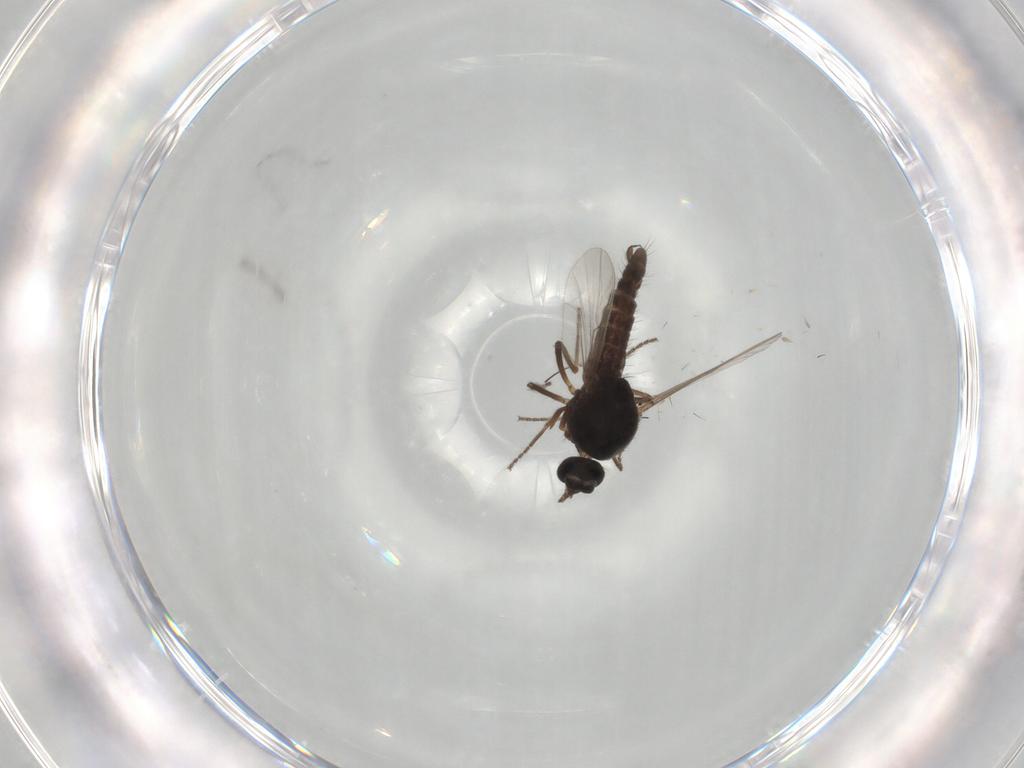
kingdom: Animalia
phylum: Arthropoda
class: Insecta
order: Diptera
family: Ceratopogonidae
